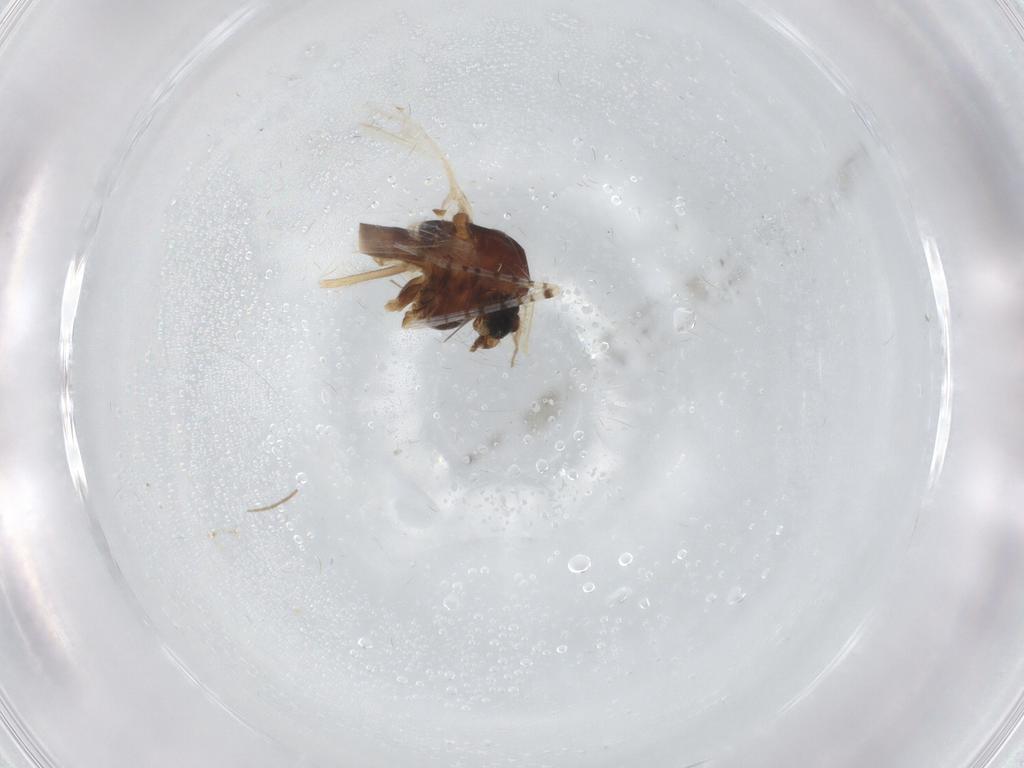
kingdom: Animalia
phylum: Arthropoda
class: Insecta
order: Diptera
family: Chironomidae
